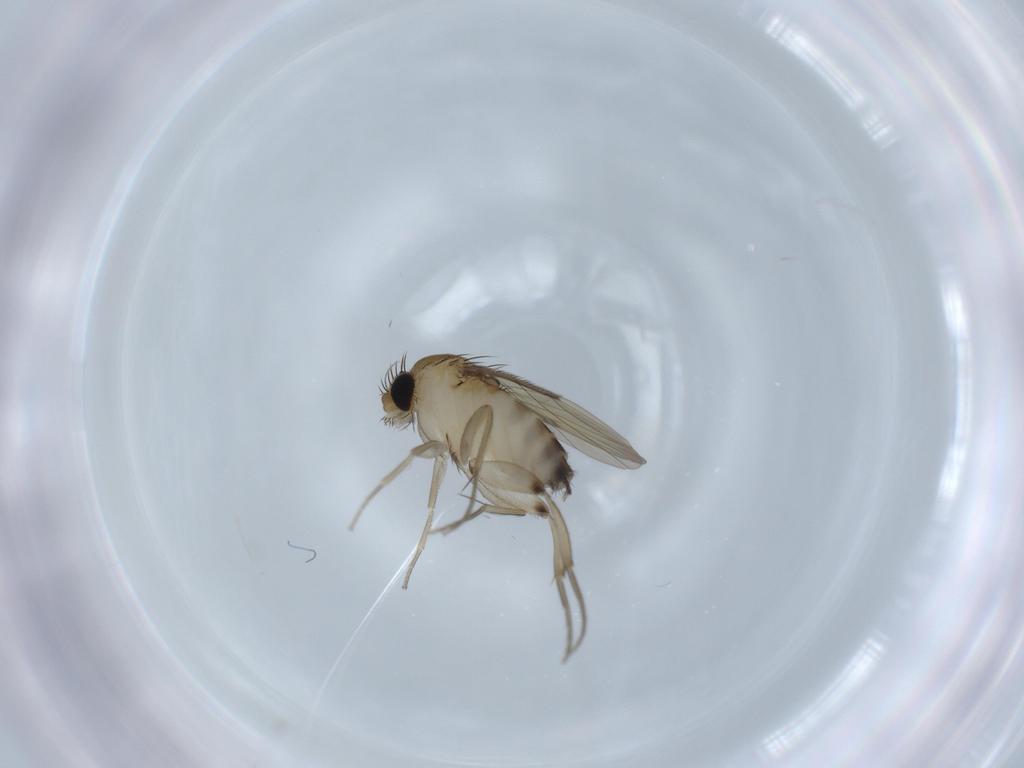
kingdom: Animalia
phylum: Arthropoda
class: Insecta
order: Diptera
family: Phoridae
